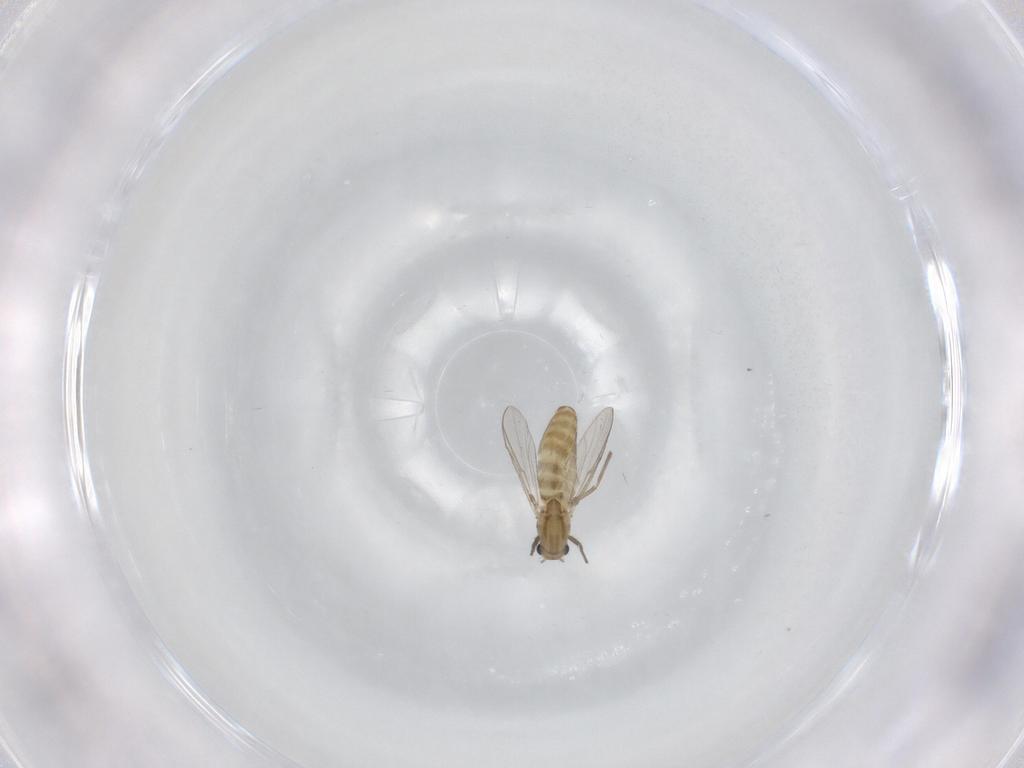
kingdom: Animalia
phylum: Arthropoda
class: Insecta
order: Diptera
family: Chironomidae
